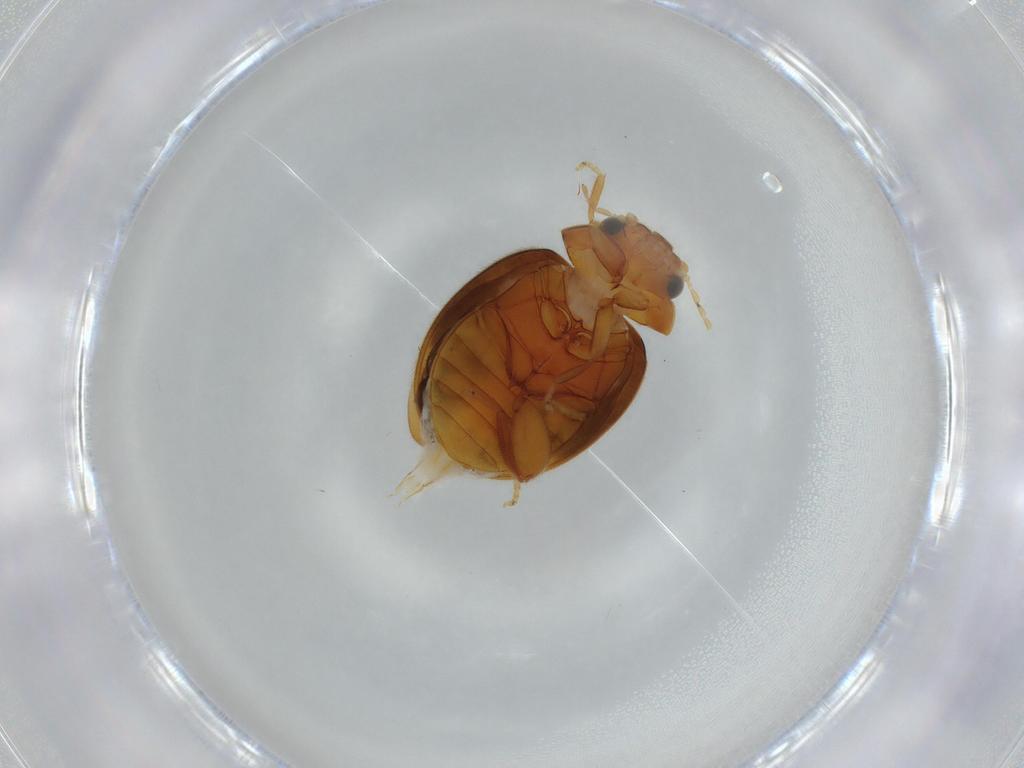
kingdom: Animalia
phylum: Arthropoda
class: Insecta
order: Coleoptera
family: Scirtidae
